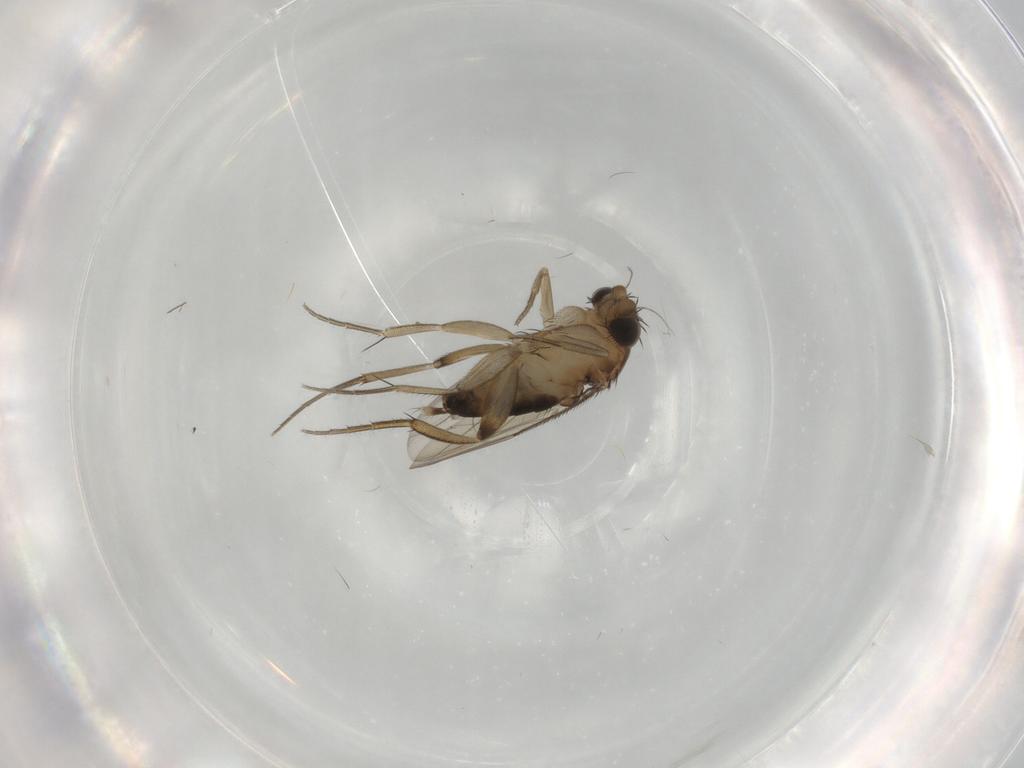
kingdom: Animalia
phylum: Arthropoda
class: Insecta
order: Diptera
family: Phoridae
